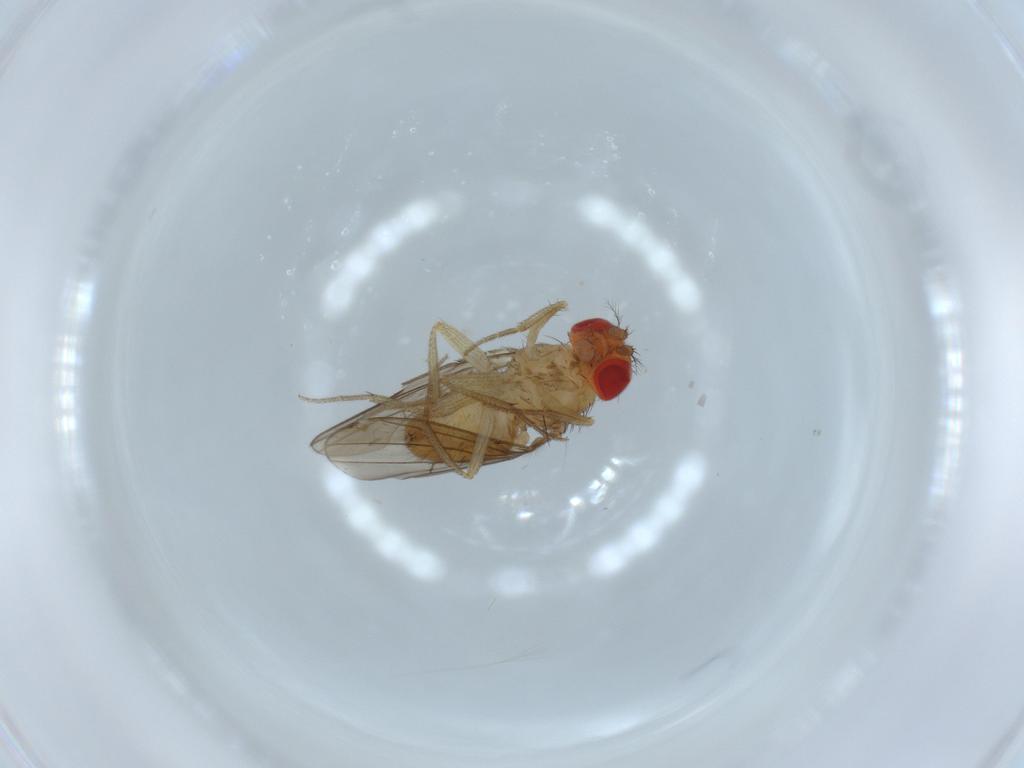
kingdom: Animalia
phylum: Arthropoda
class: Insecta
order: Diptera
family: Drosophilidae
